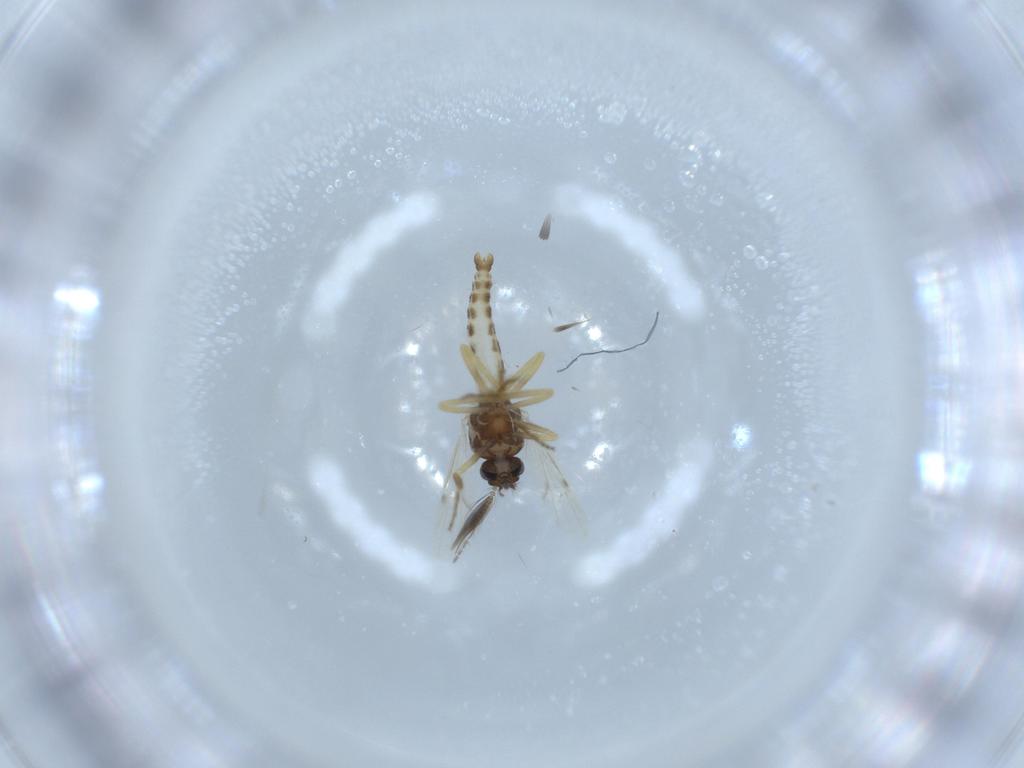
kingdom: Animalia
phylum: Arthropoda
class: Insecta
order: Diptera
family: Ceratopogonidae
